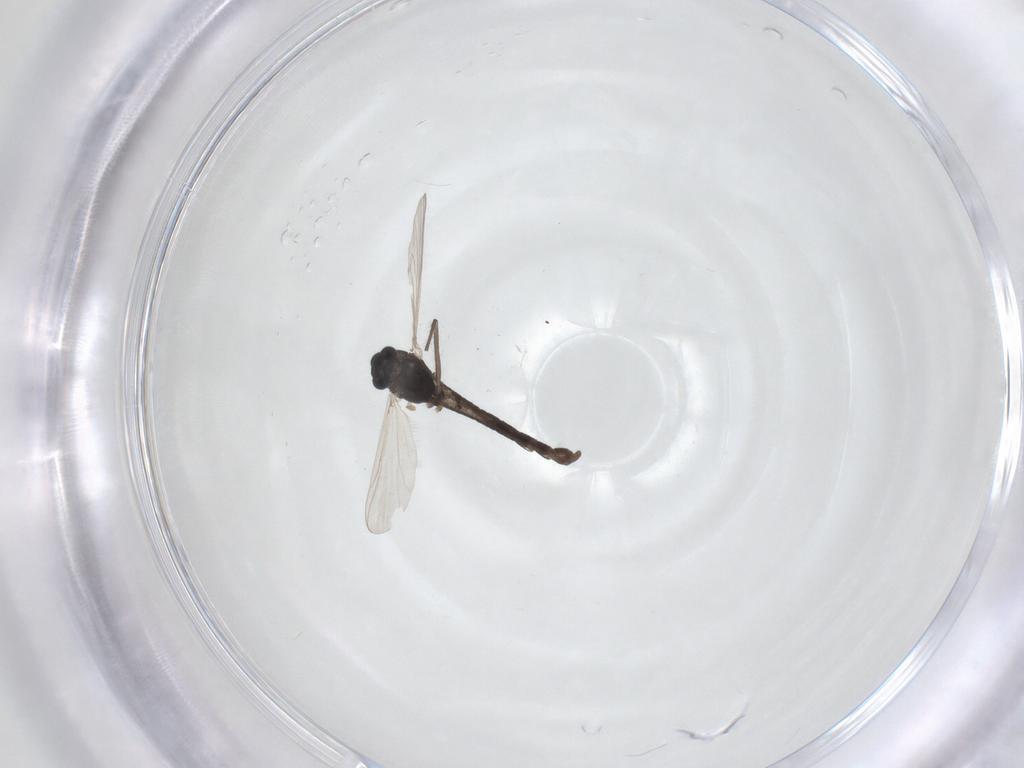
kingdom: Animalia
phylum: Arthropoda
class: Insecta
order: Diptera
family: Chironomidae
